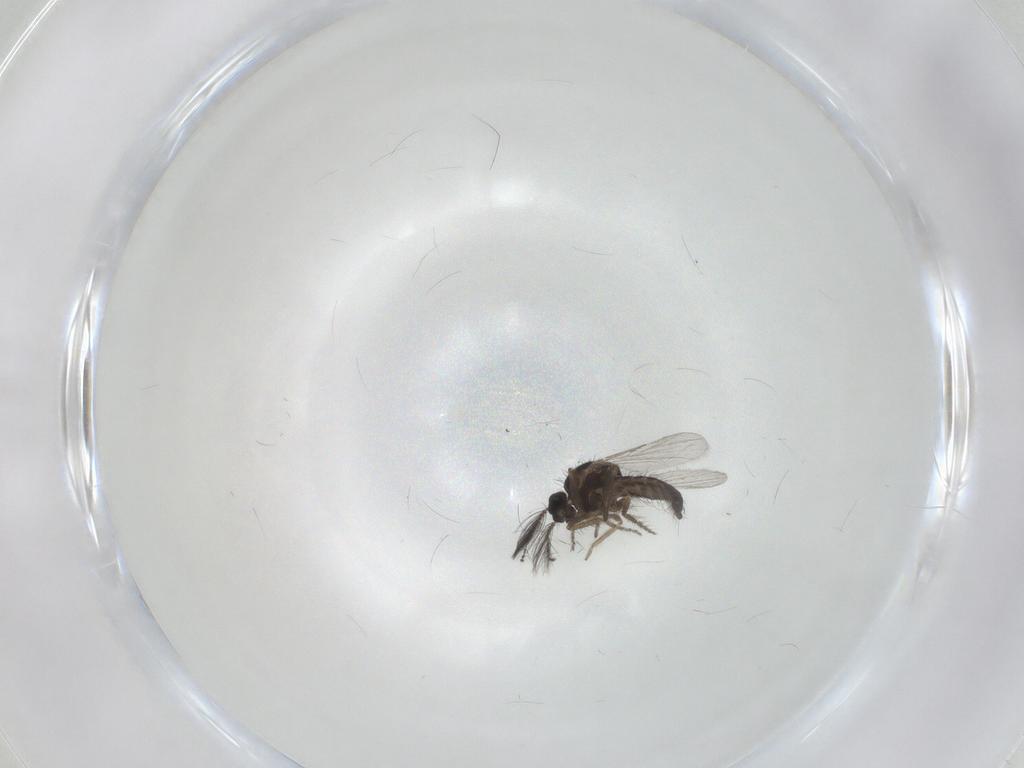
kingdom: Animalia
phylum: Arthropoda
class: Insecta
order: Diptera
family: Ceratopogonidae
